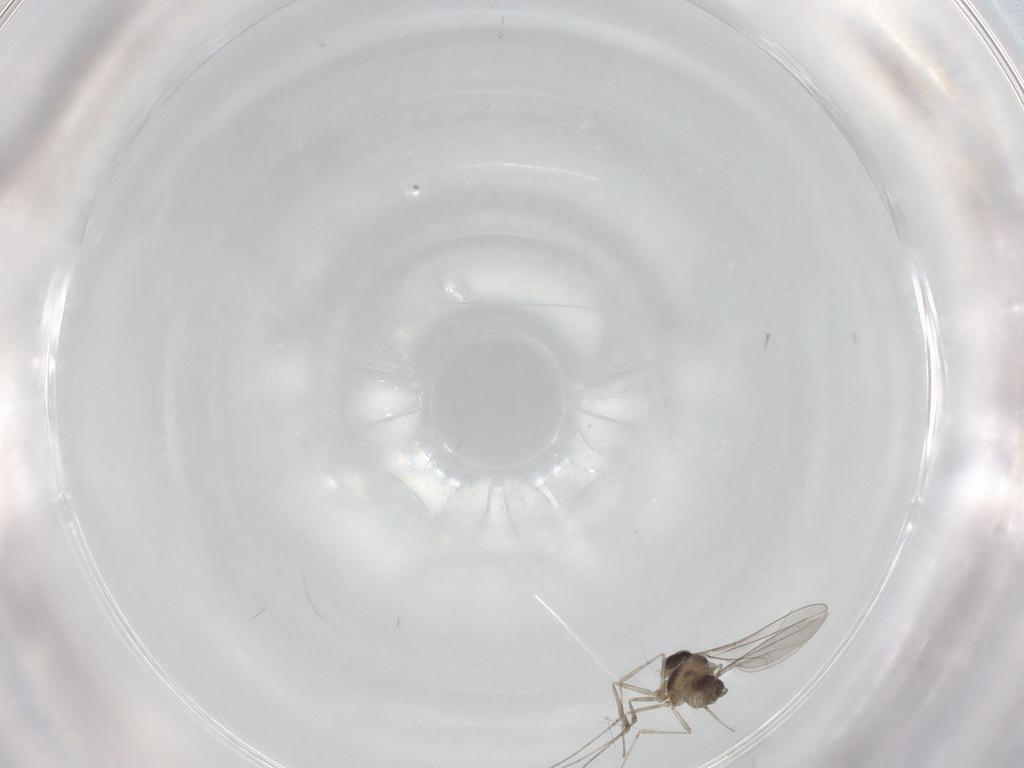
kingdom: Animalia
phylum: Arthropoda
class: Insecta
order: Diptera
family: Cecidomyiidae
